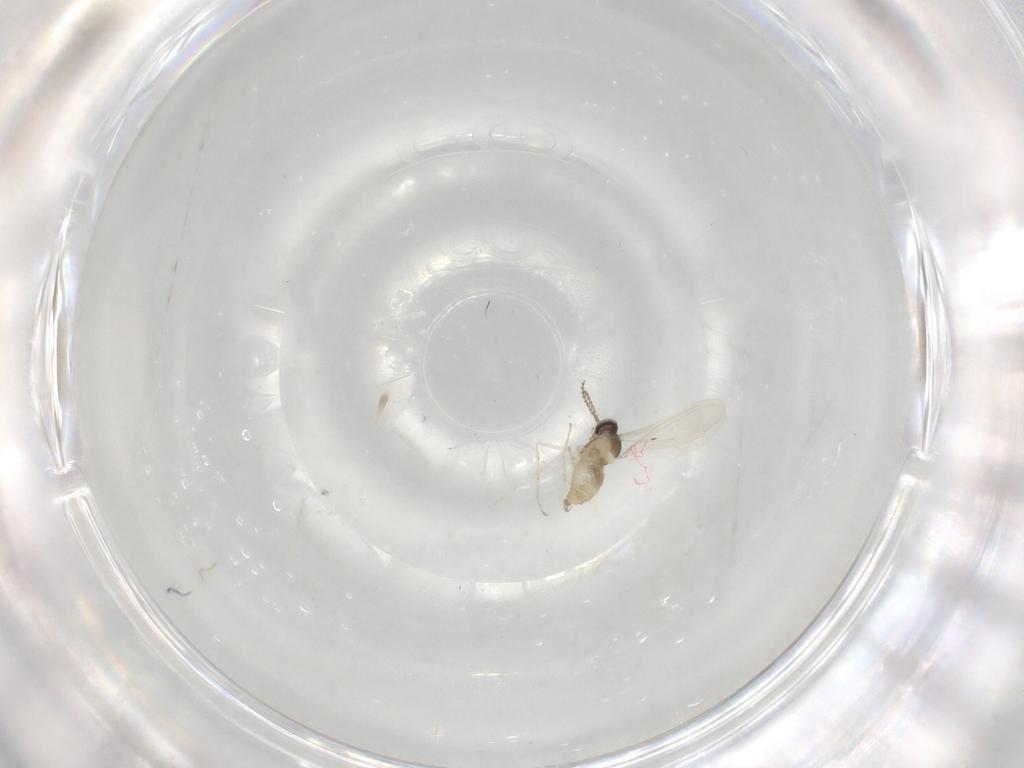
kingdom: Animalia
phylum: Arthropoda
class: Insecta
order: Diptera
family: Cecidomyiidae
